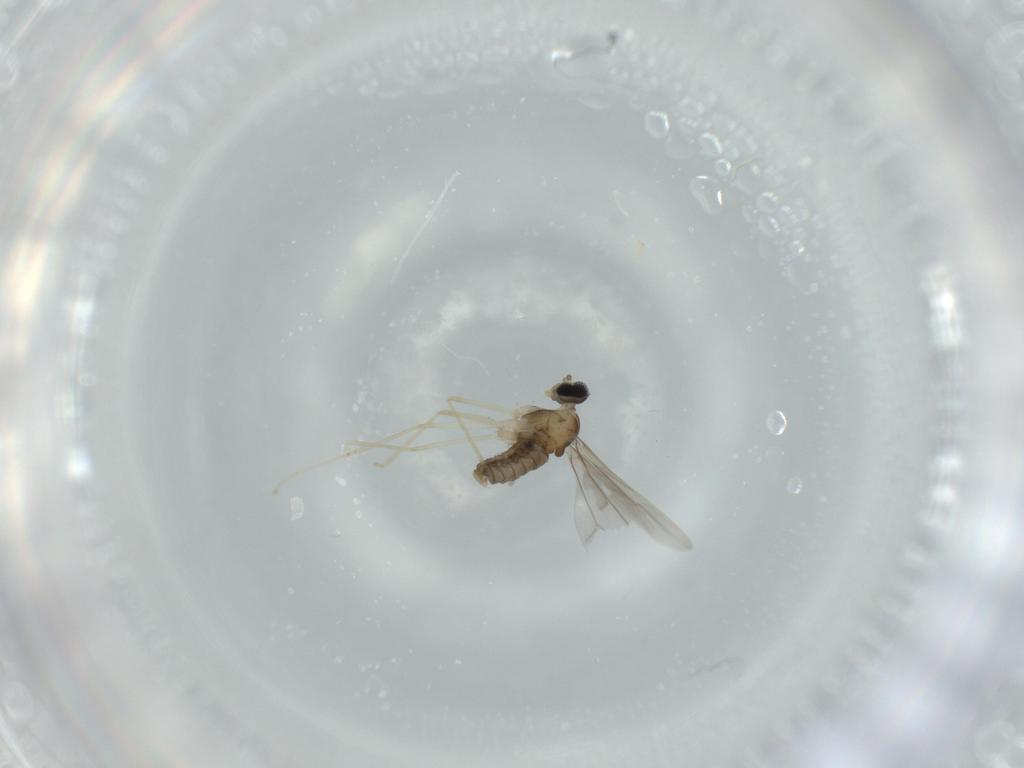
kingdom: Animalia
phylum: Arthropoda
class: Insecta
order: Diptera
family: Cecidomyiidae
